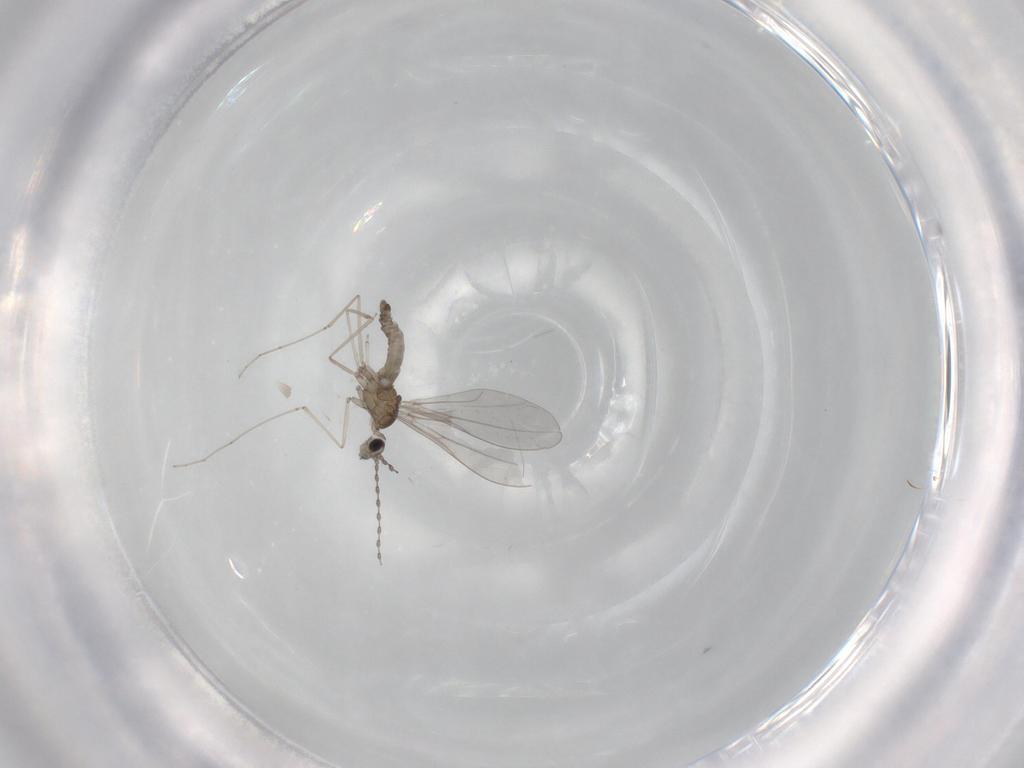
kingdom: Animalia
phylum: Arthropoda
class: Insecta
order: Diptera
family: Cecidomyiidae
